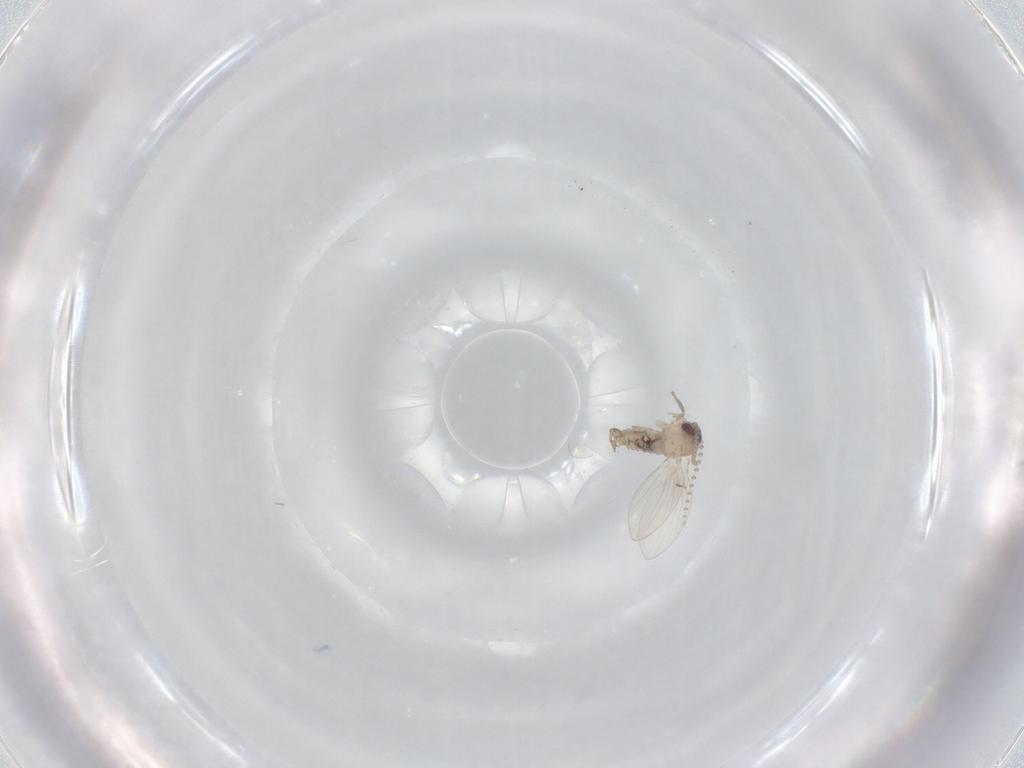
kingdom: Animalia
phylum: Arthropoda
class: Insecta
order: Diptera
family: Psychodidae
